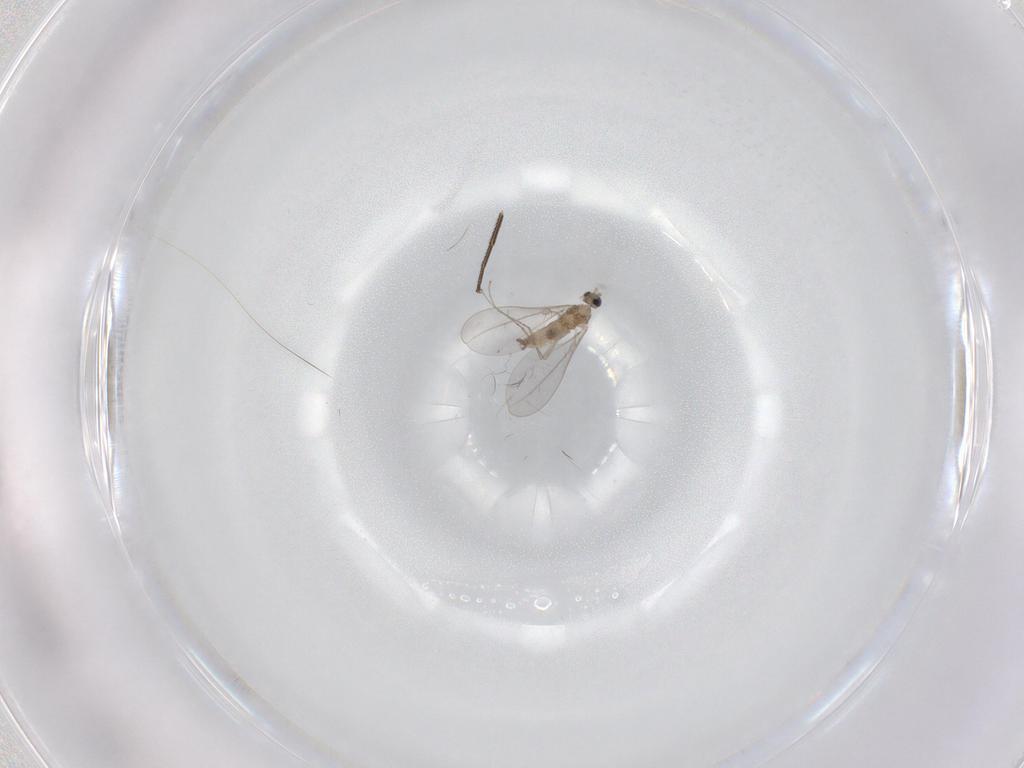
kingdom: Animalia
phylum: Arthropoda
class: Insecta
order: Diptera
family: Cecidomyiidae
